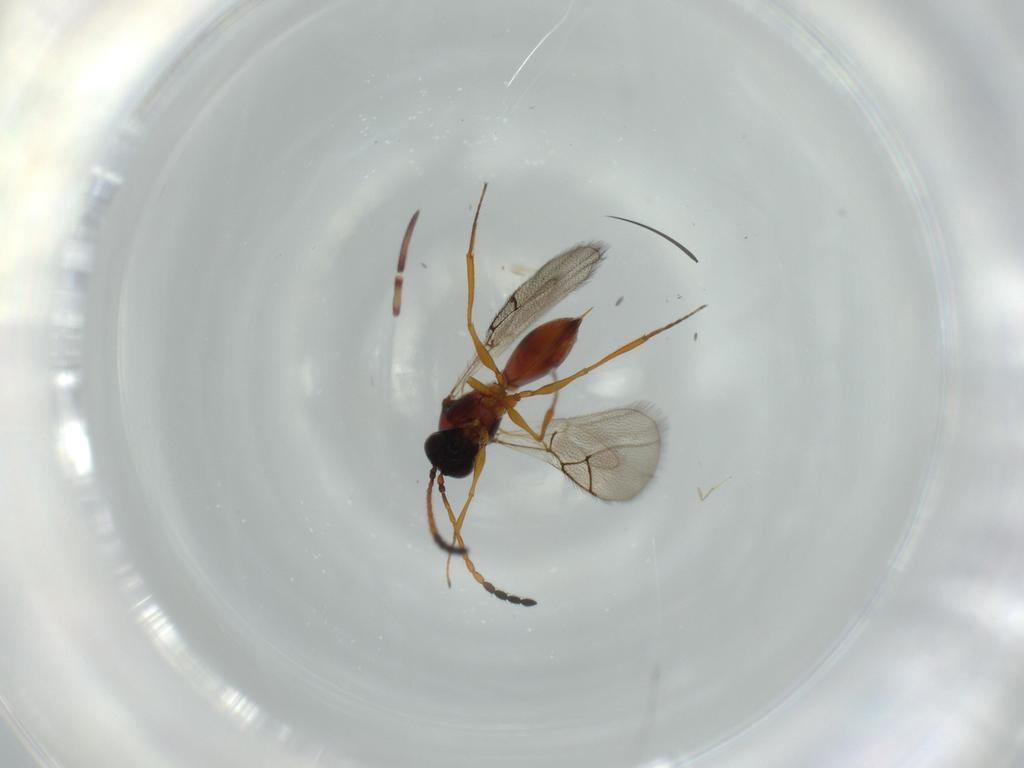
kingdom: Animalia
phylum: Arthropoda
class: Insecta
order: Hymenoptera
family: Figitidae
